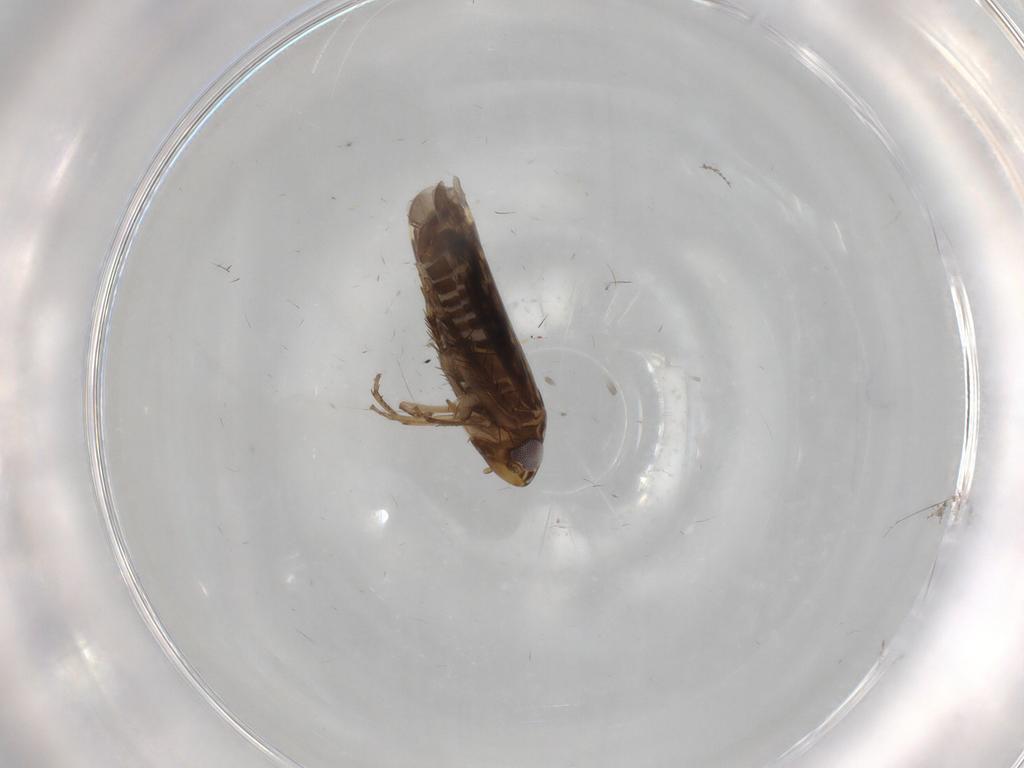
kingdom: Animalia
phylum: Arthropoda
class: Insecta
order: Hemiptera
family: Cicadellidae
